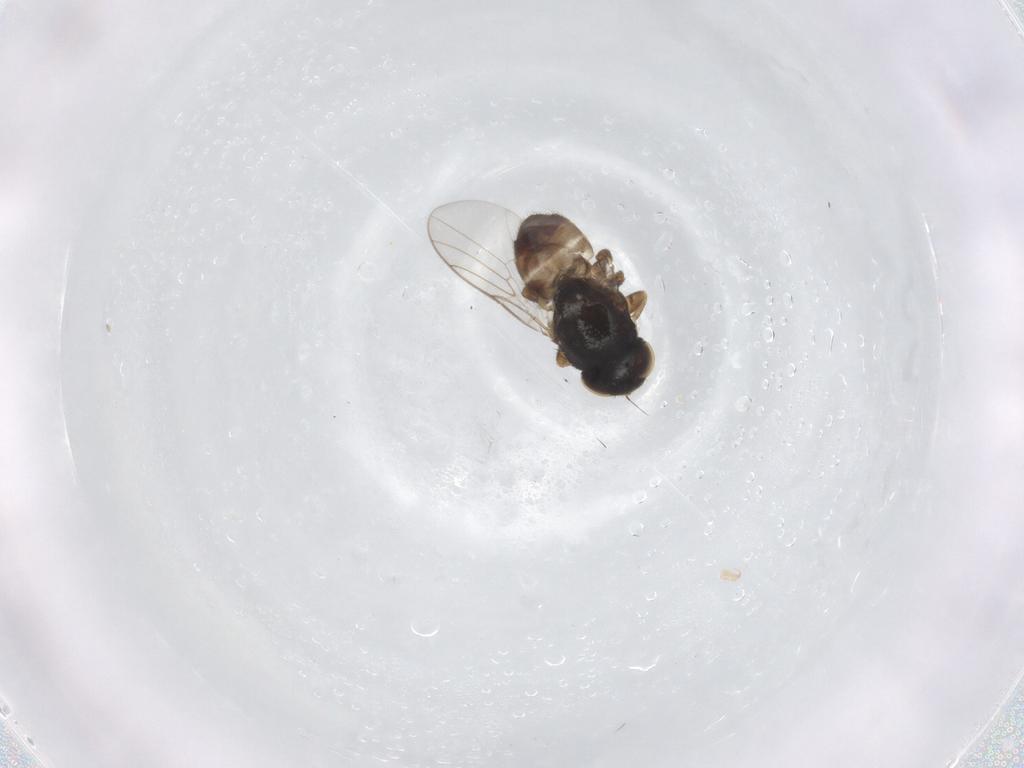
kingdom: Animalia
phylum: Arthropoda
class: Insecta
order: Diptera
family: Chloropidae
